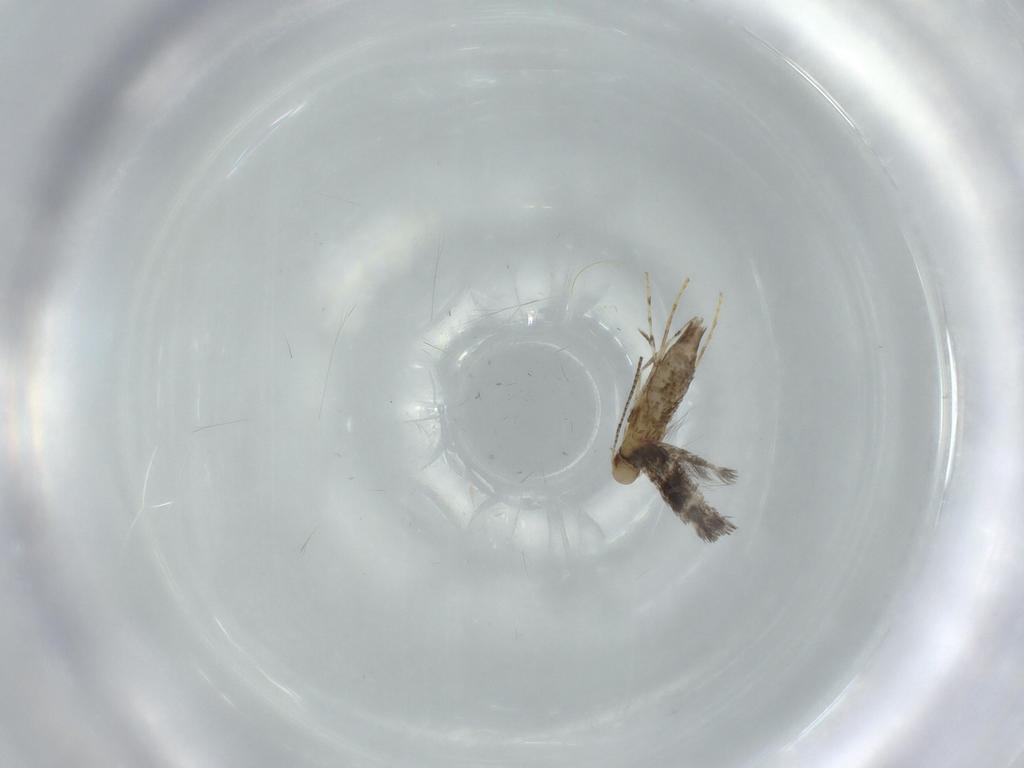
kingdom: Animalia
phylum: Arthropoda
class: Insecta
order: Lepidoptera
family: Gracillariidae
